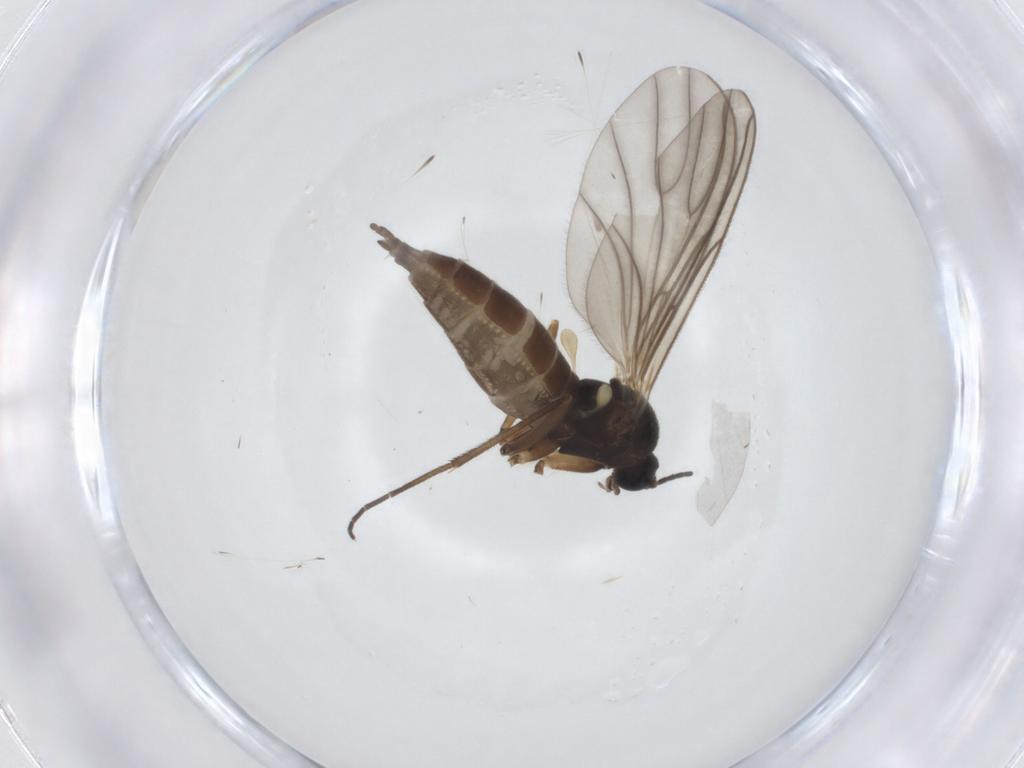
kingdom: Animalia
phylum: Arthropoda
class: Insecta
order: Diptera
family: Sciaridae
